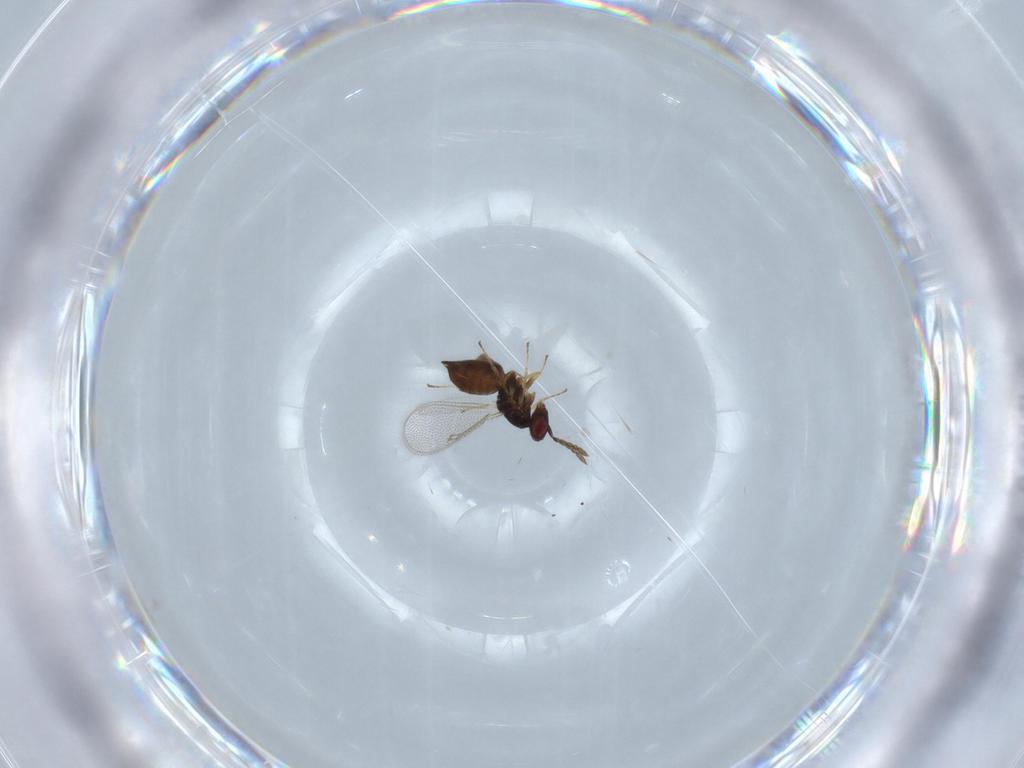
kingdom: Animalia
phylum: Arthropoda
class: Insecta
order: Hymenoptera
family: Eulophidae
